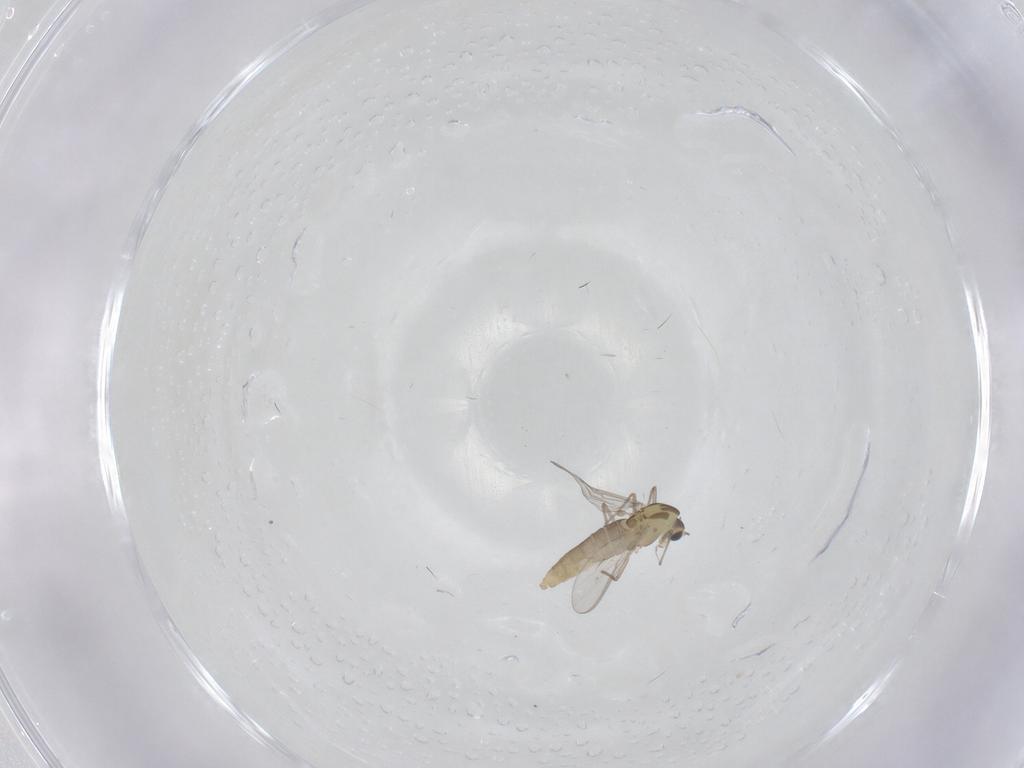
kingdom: Animalia
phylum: Arthropoda
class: Insecta
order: Diptera
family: Chironomidae
